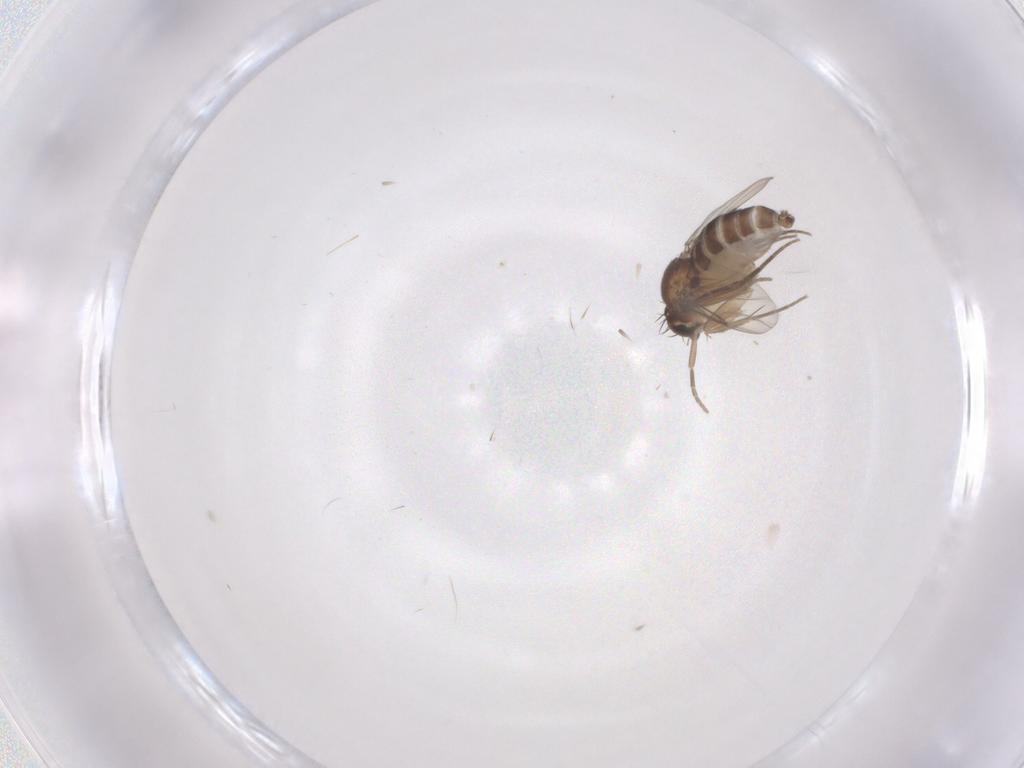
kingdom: Animalia
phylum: Arthropoda
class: Insecta
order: Diptera
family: Phoridae
